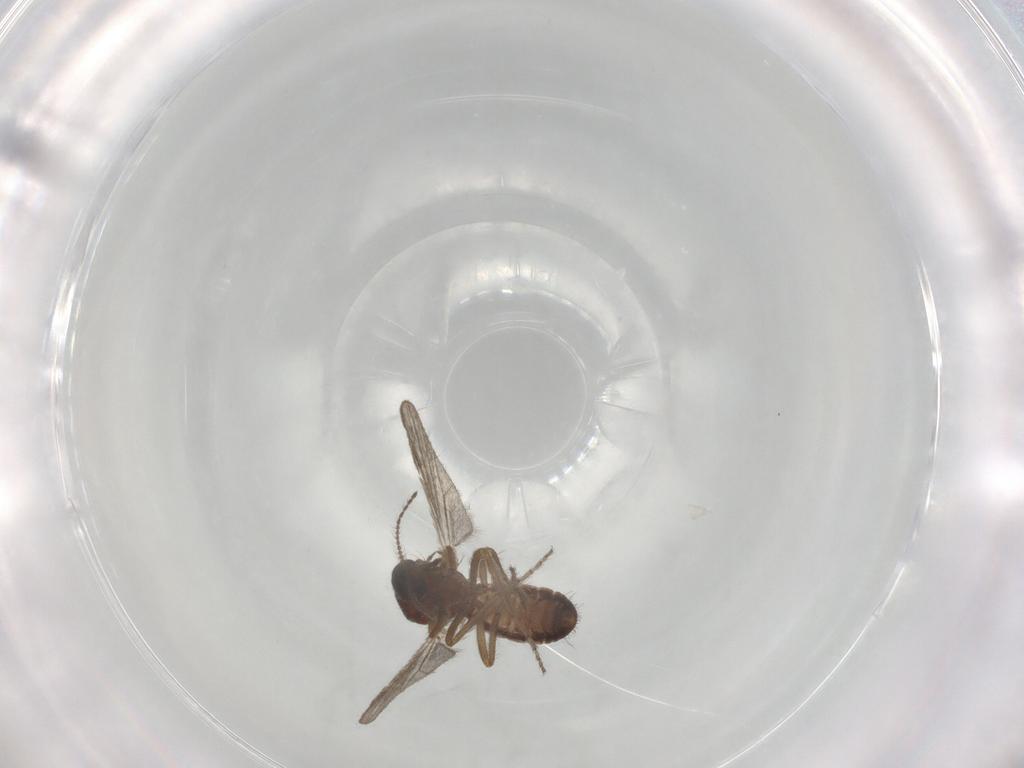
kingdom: Animalia
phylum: Arthropoda
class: Insecta
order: Diptera
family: Ceratopogonidae
